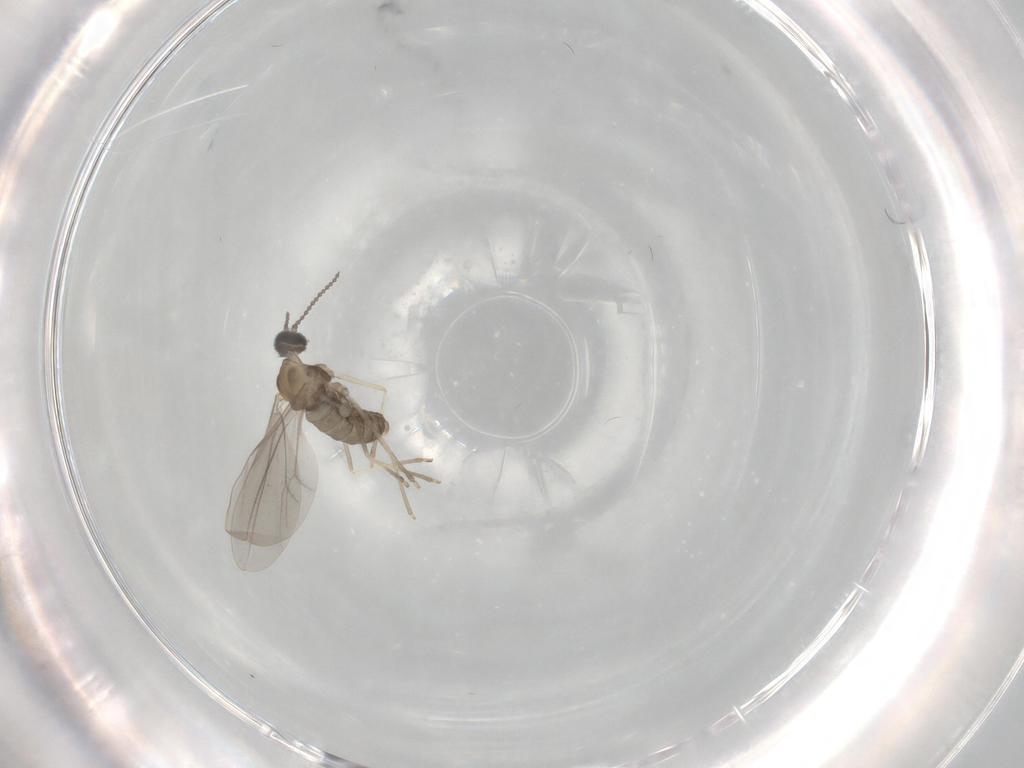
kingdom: Animalia
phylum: Arthropoda
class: Insecta
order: Diptera
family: Cecidomyiidae
